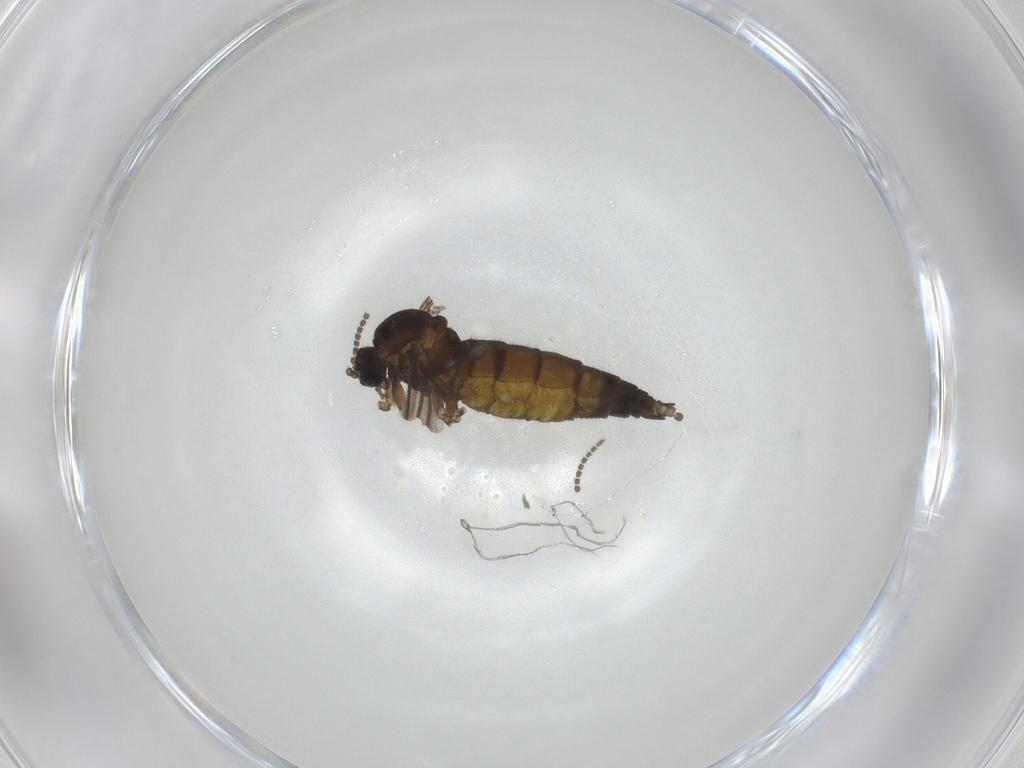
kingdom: Animalia
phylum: Arthropoda
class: Insecta
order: Diptera
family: Sciaridae
